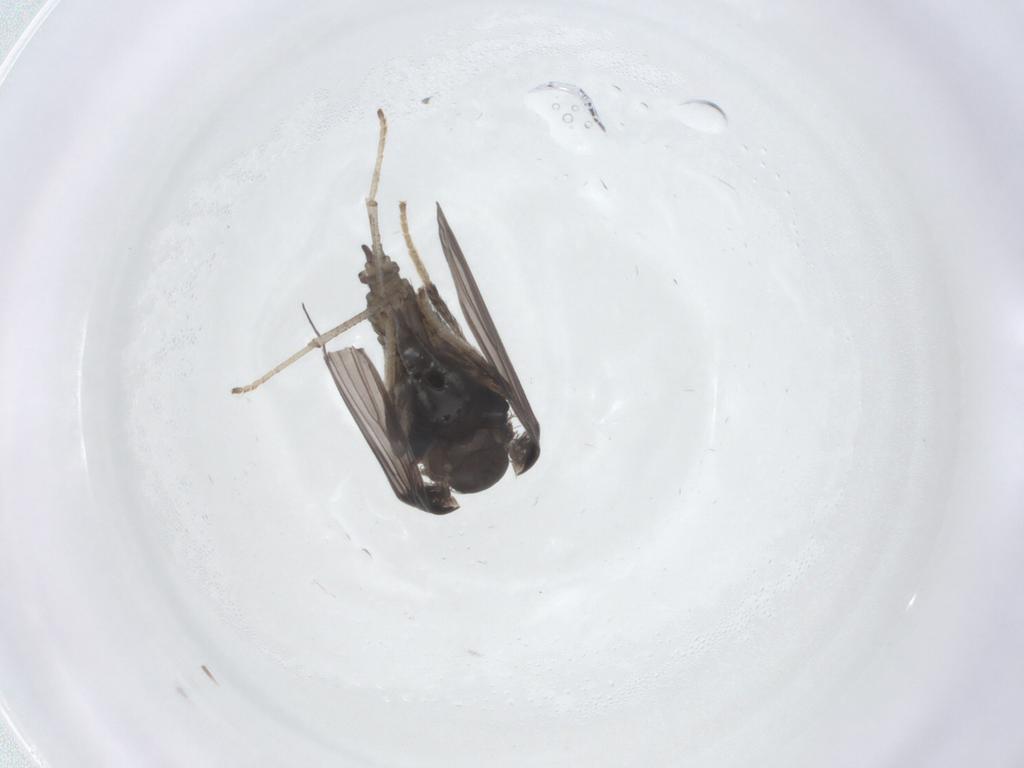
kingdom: Animalia
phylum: Arthropoda
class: Insecta
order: Diptera
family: Psychodidae
